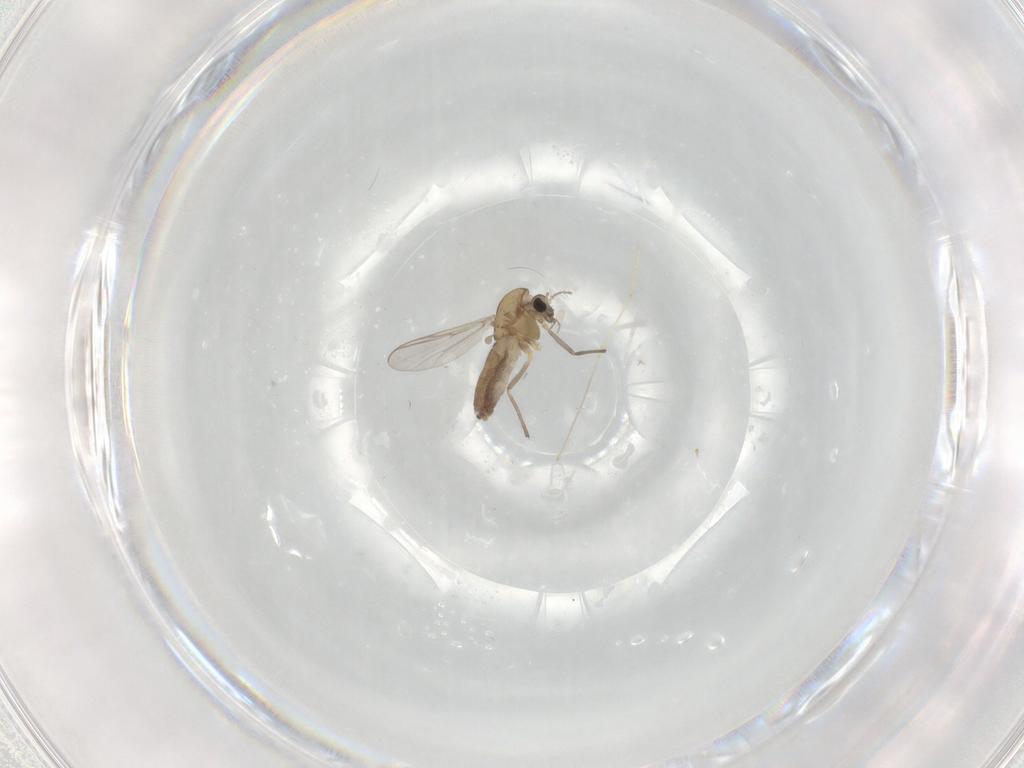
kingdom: Animalia
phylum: Arthropoda
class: Insecta
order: Diptera
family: Chironomidae
